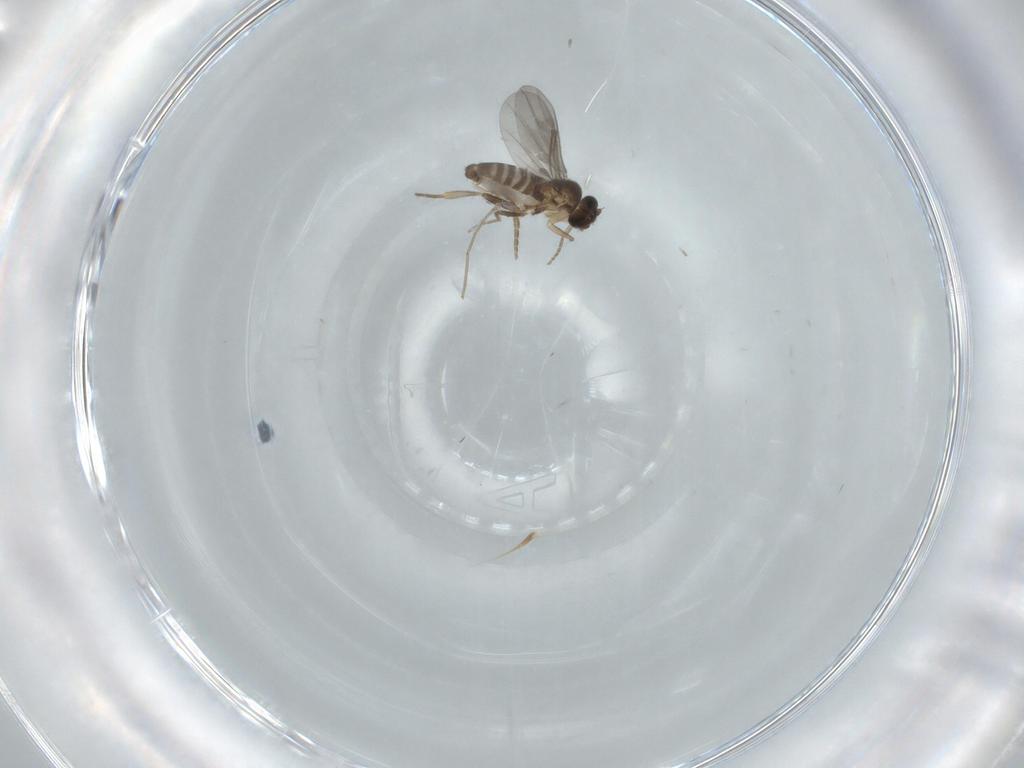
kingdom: Animalia
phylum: Arthropoda
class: Insecta
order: Diptera
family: Chironomidae
